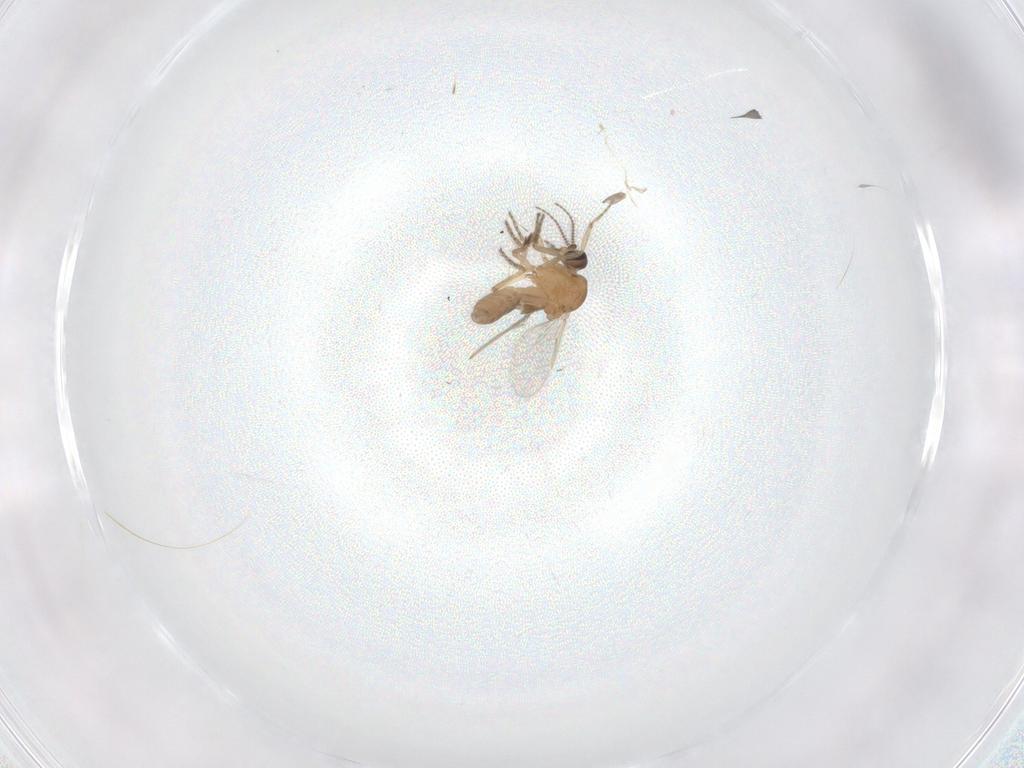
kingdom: Animalia
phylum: Arthropoda
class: Insecta
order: Diptera
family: Ceratopogonidae
